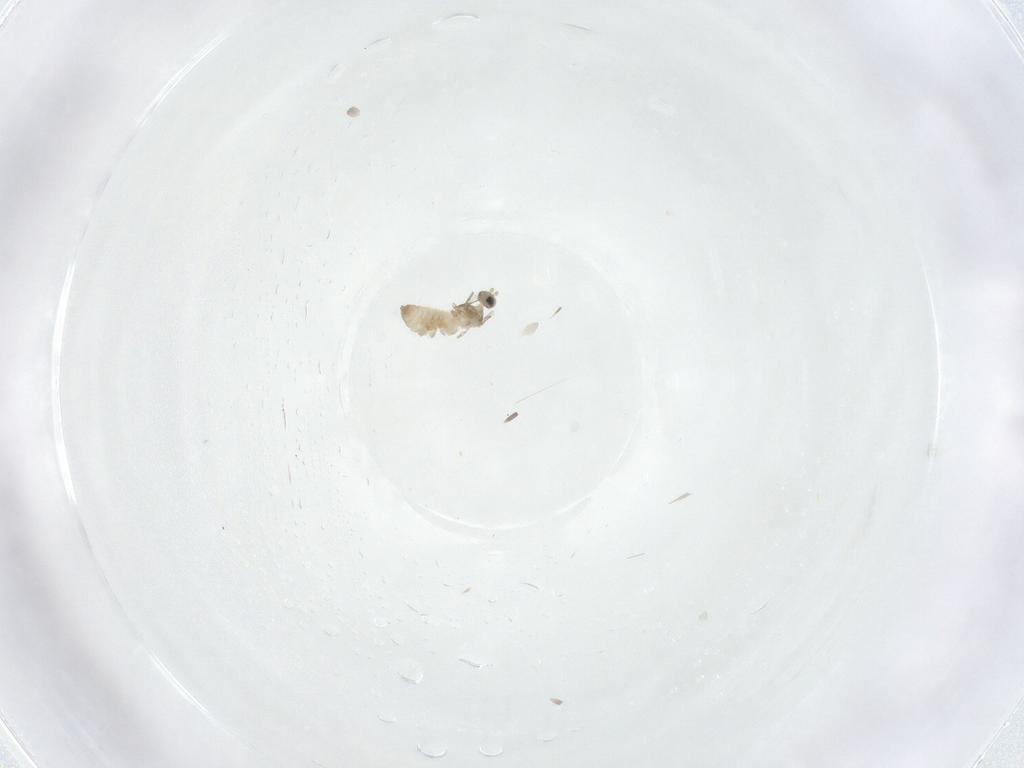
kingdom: Animalia
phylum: Arthropoda
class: Insecta
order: Diptera
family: Cecidomyiidae
